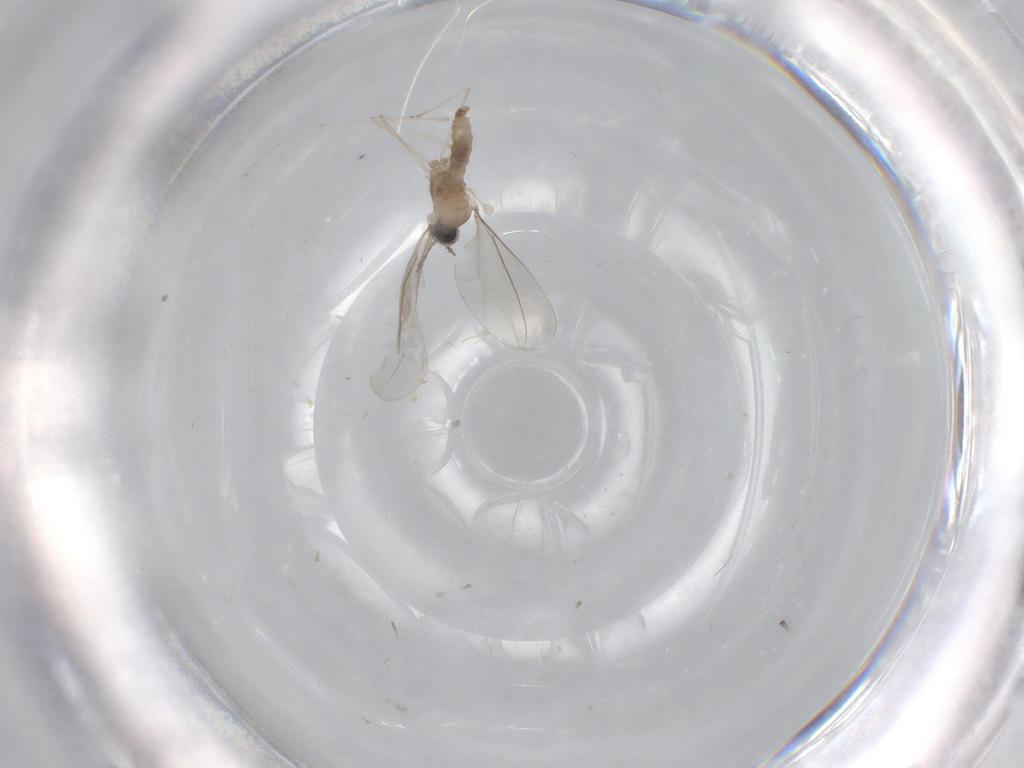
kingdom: Animalia
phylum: Arthropoda
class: Insecta
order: Diptera
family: Cecidomyiidae
